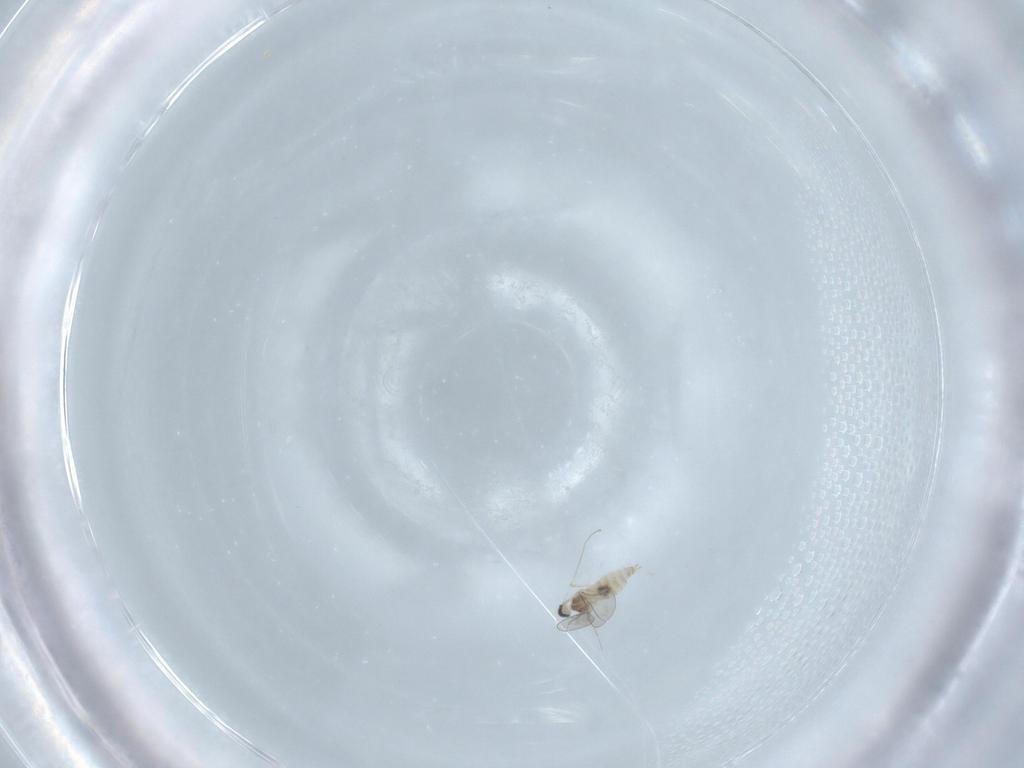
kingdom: Animalia
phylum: Arthropoda
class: Insecta
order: Diptera
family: Cecidomyiidae
